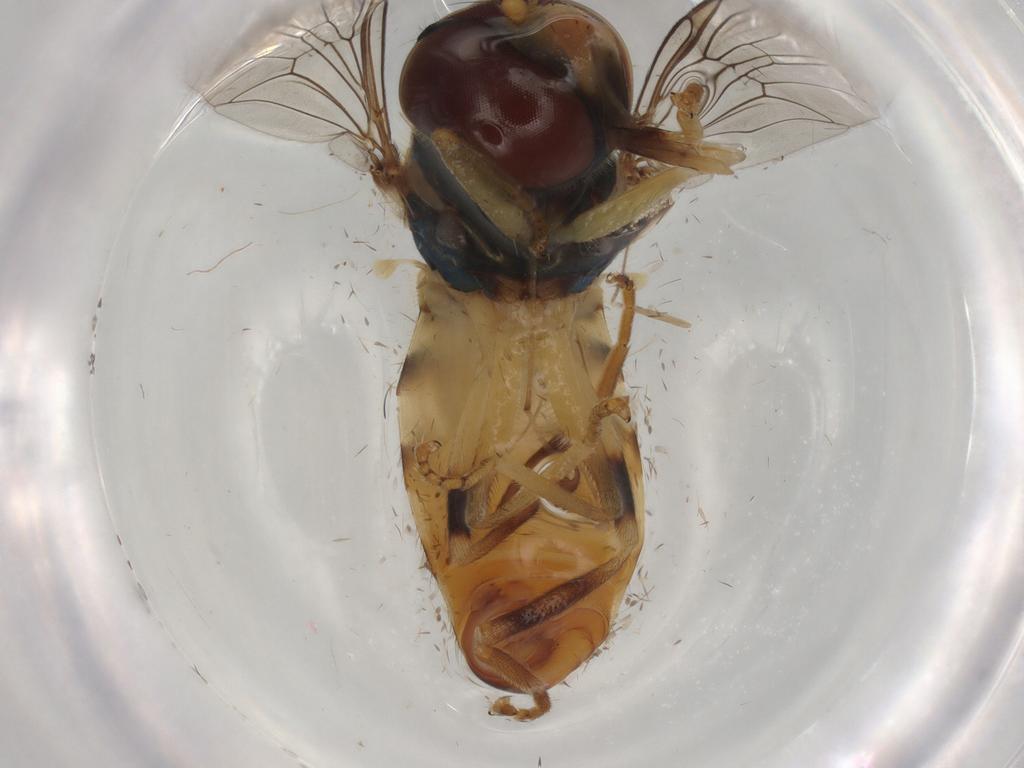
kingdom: Animalia
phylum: Arthropoda
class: Insecta
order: Diptera
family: Syrphidae
